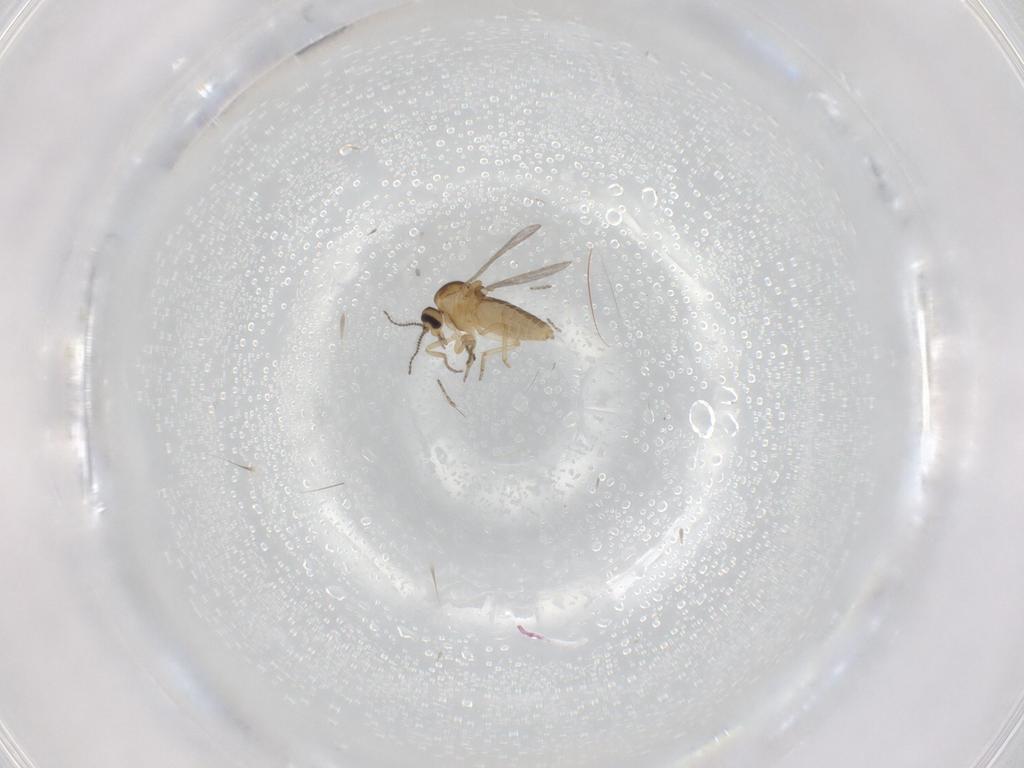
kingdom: Animalia
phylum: Arthropoda
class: Insecta
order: Diptera
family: Ceratopogonidae
